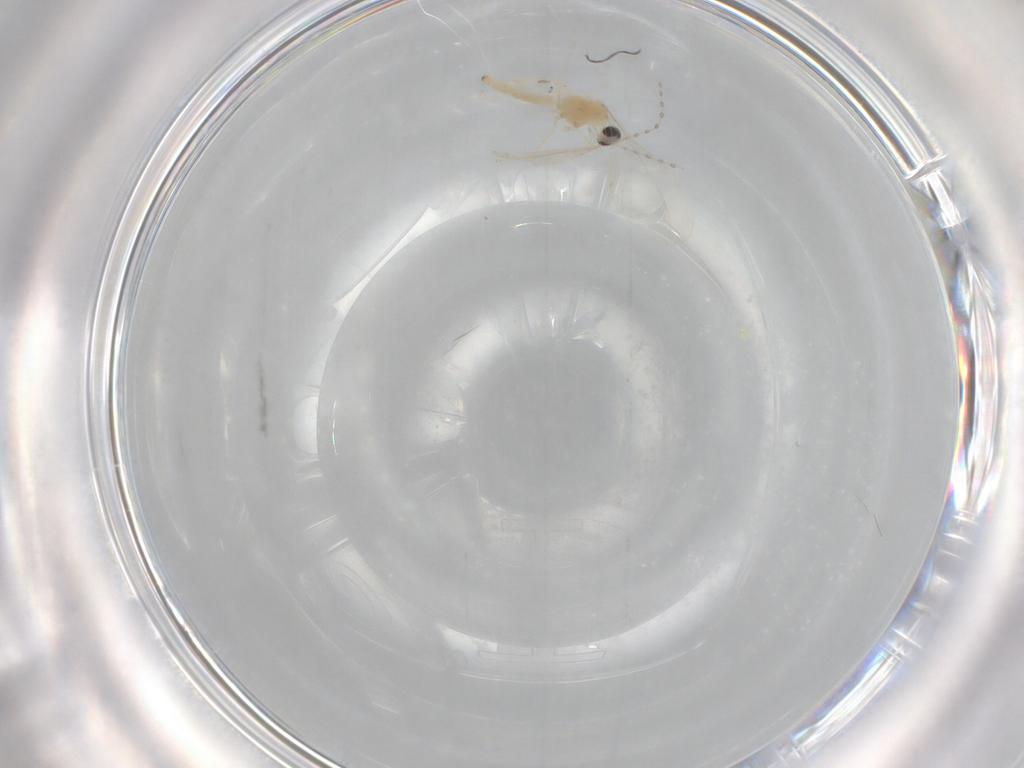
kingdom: Animalia
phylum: Arthropoda
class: Insecta
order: Diptera
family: Cecidomyiidae
